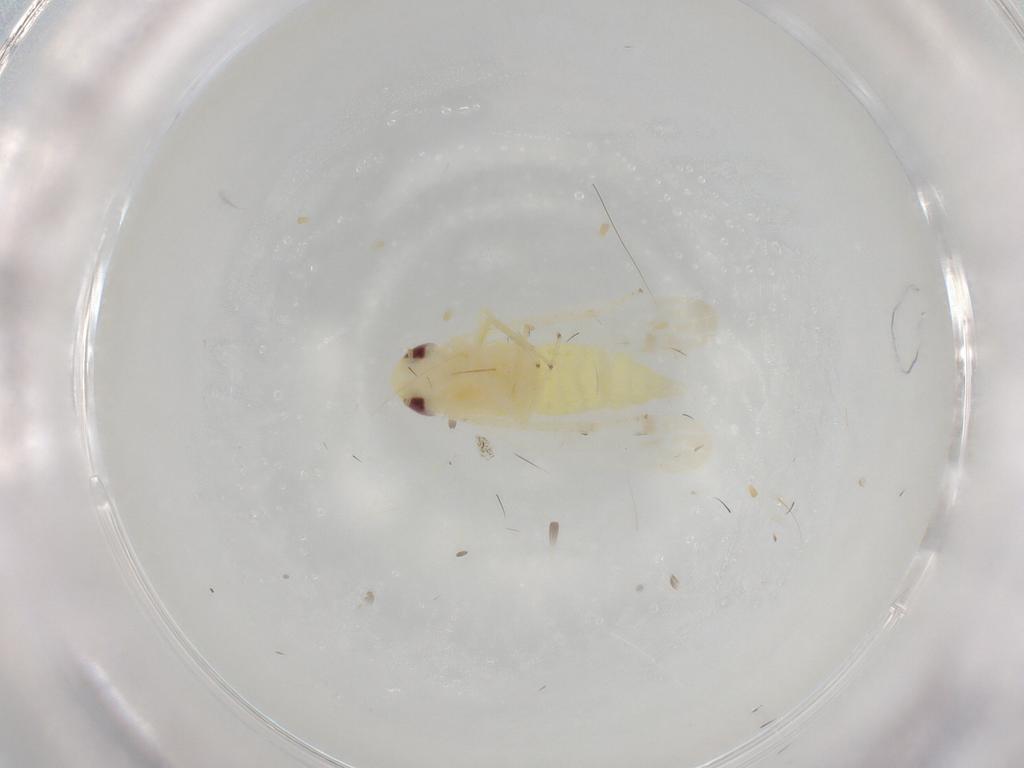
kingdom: Animalia
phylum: Arthropoda
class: Insecta
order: Hemiptera
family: Cicadellidae
